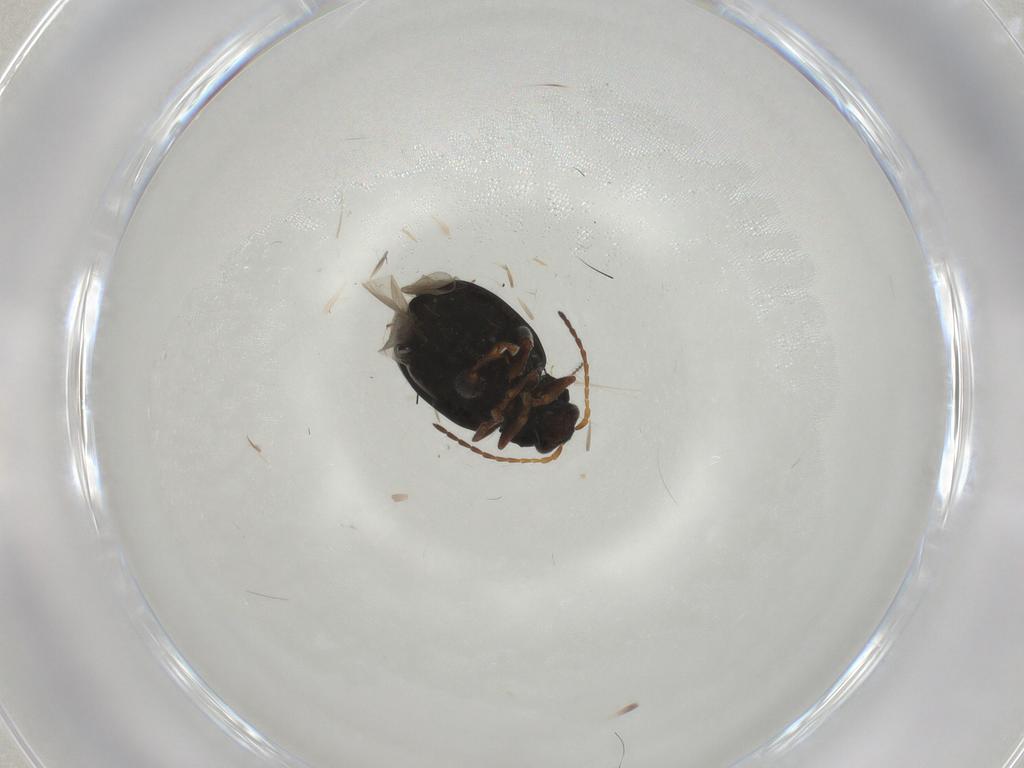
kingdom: Animalia
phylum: Arthropoda
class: Insecta
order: Coleoptera
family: Chrysomelidae
